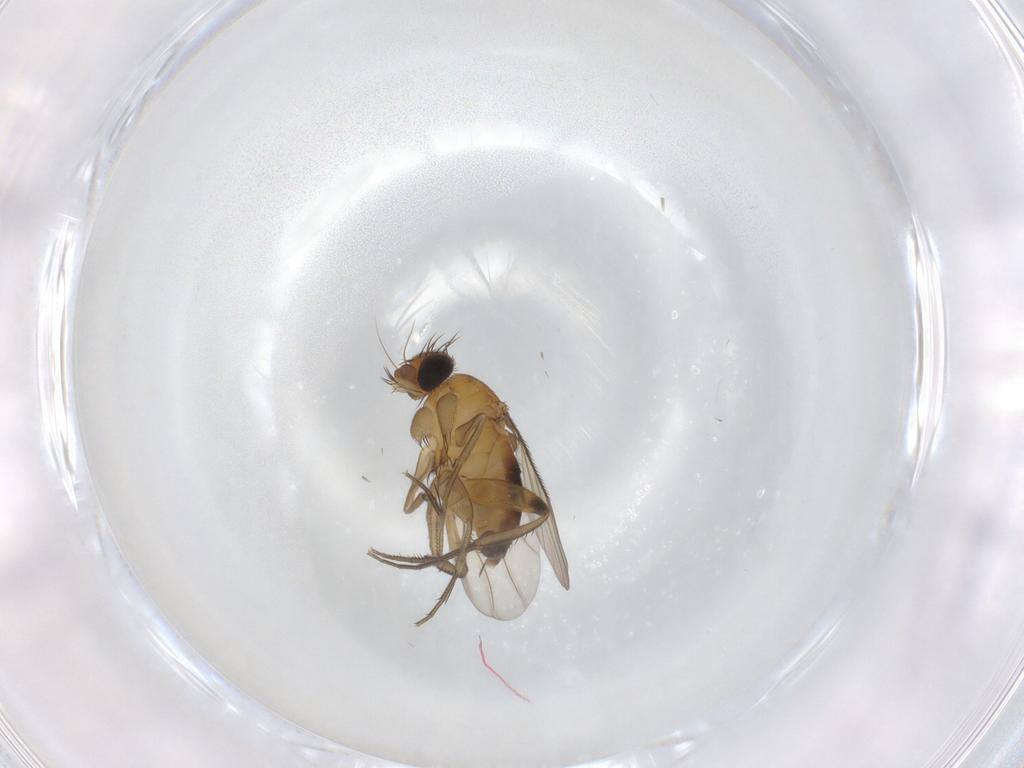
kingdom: Animalia
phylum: Arthropoda
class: Insecta
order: Diptera
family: Phoridae
